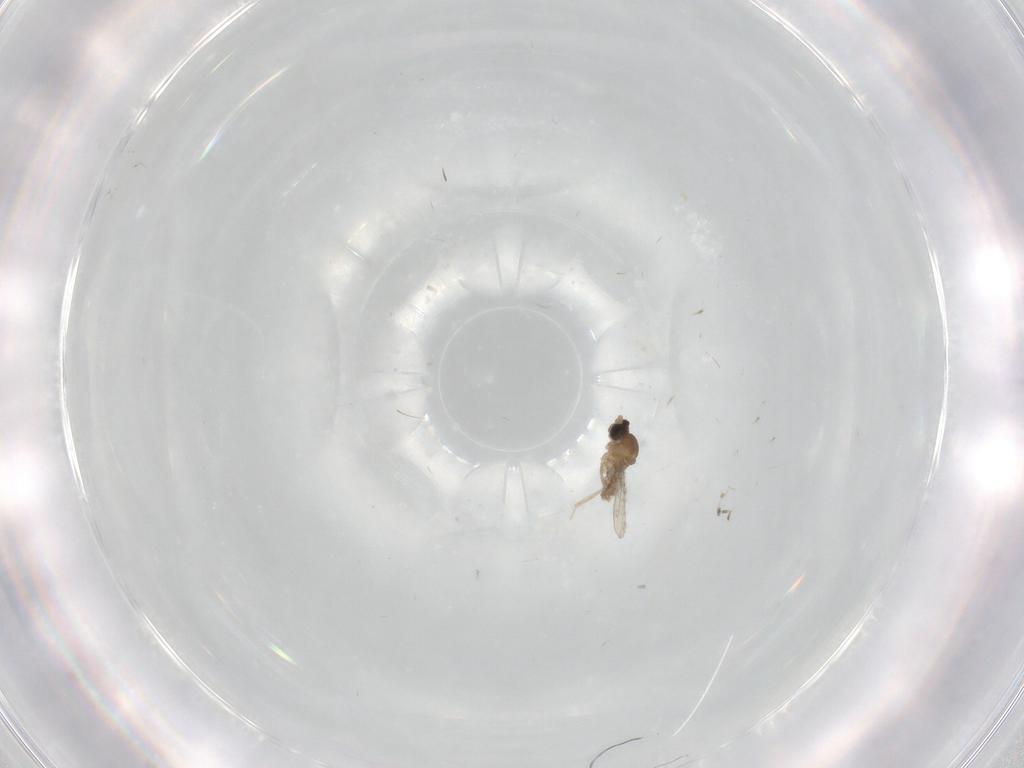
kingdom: Animalia
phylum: Arthropoda
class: Insecta
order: Diptera
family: Cecidomyiidae
